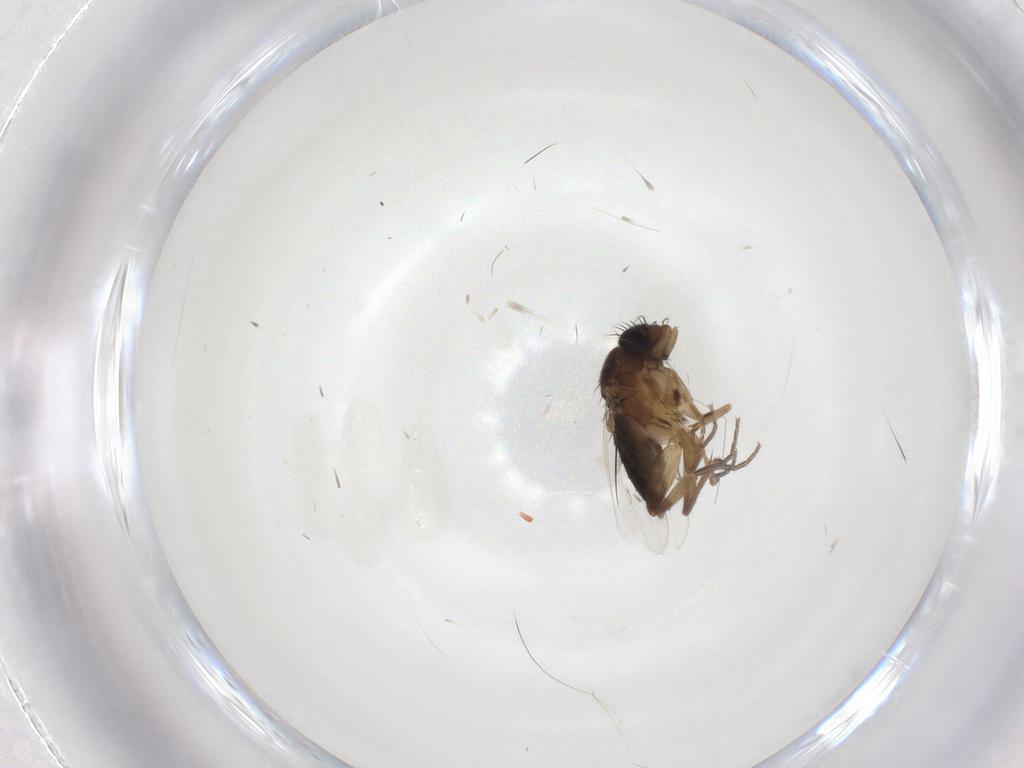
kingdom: Animalia
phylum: Arthropoda
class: Insecta
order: Diptera
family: Phoridae
